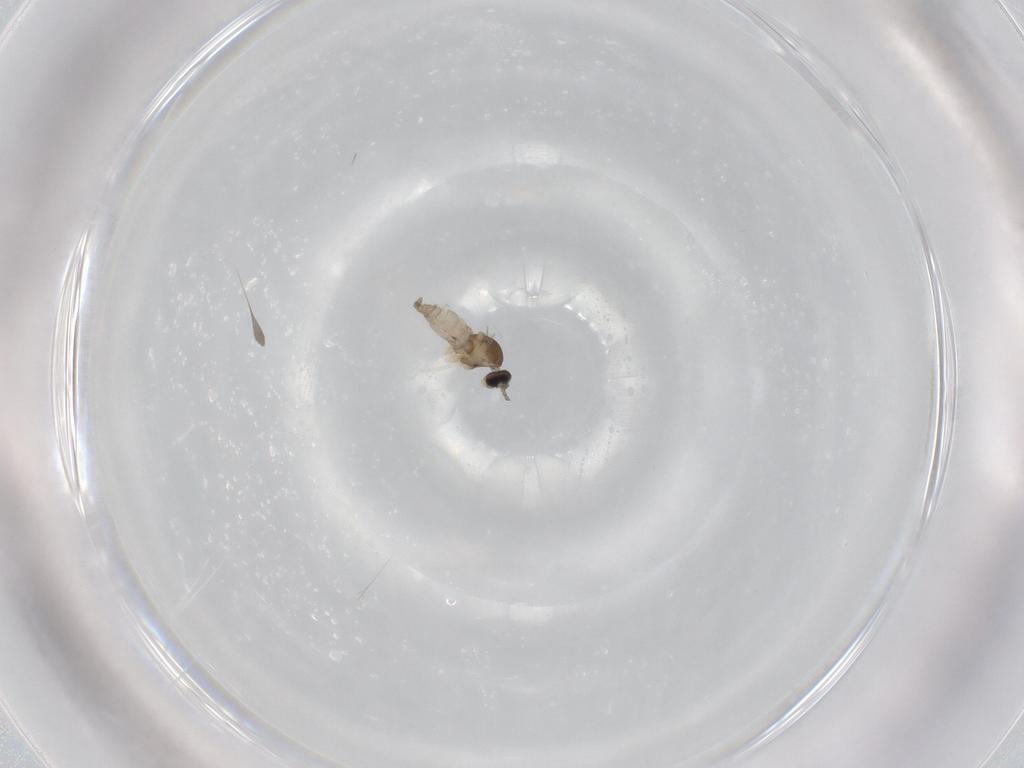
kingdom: Animalia
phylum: Arthropoda
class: Insecta
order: Diptera
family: Cecidomyiidae
